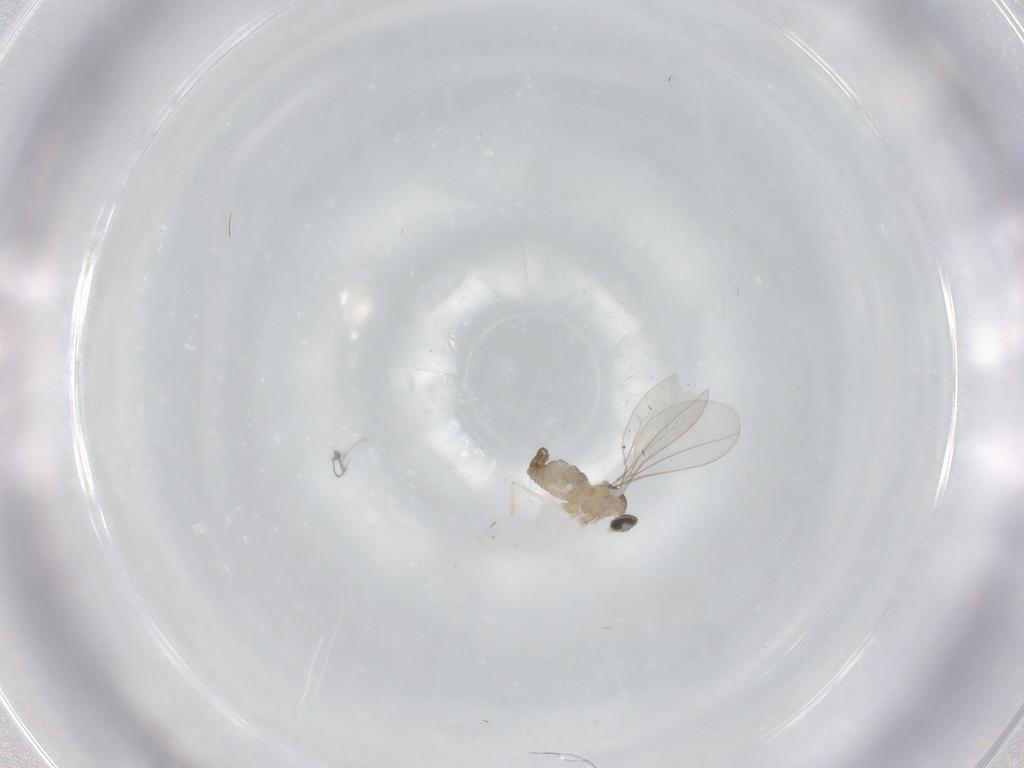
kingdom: Animalia
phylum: Arthropoda
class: Insecta
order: Diptera
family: Cecidomyiidae
